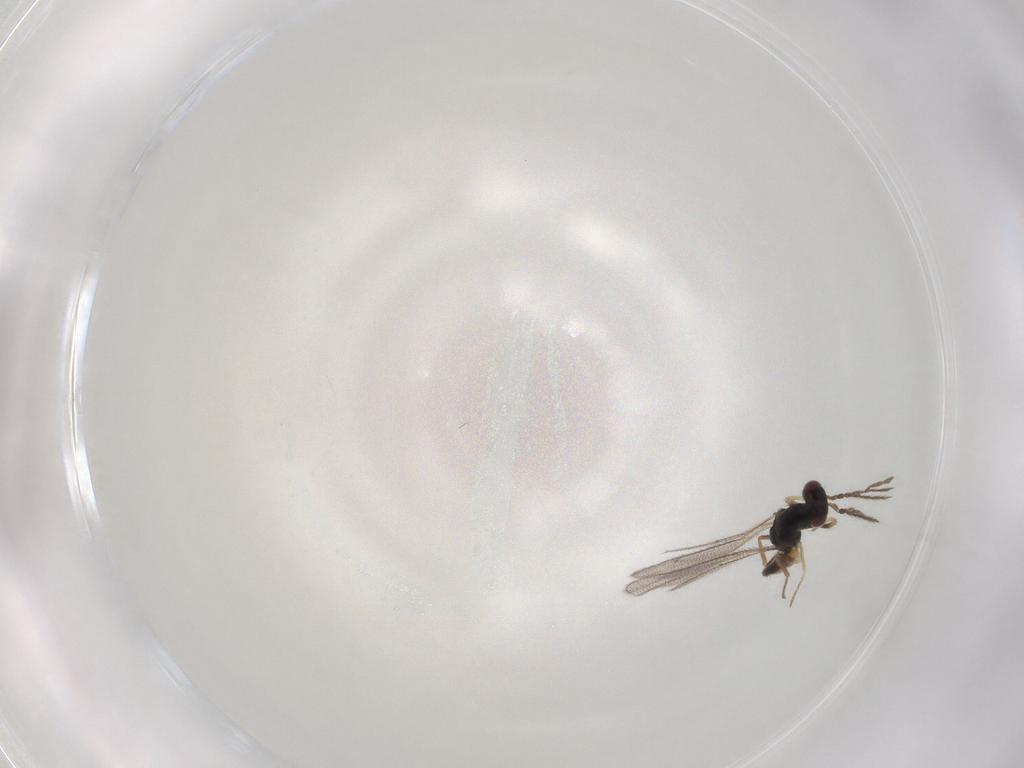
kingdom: Animalia
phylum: Arthropoda
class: Insecta
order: Hymenoptera
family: Eulophidae
